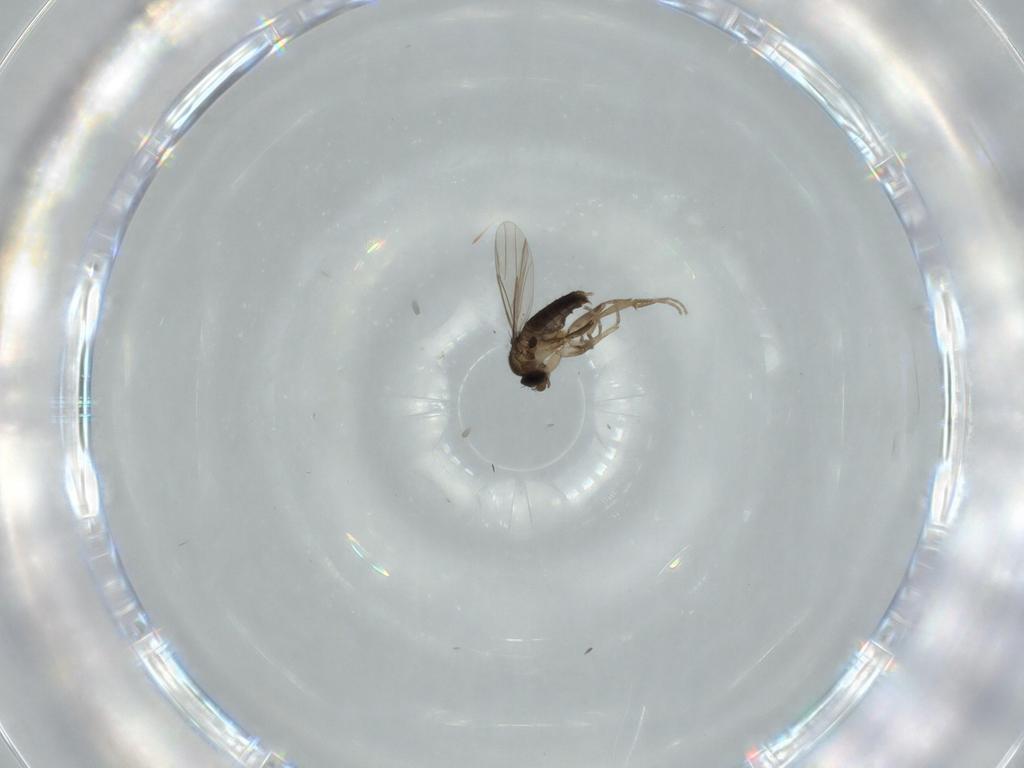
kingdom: Animalia
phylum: Arthropoda
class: Insecta
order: Diptera
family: Phoridae
